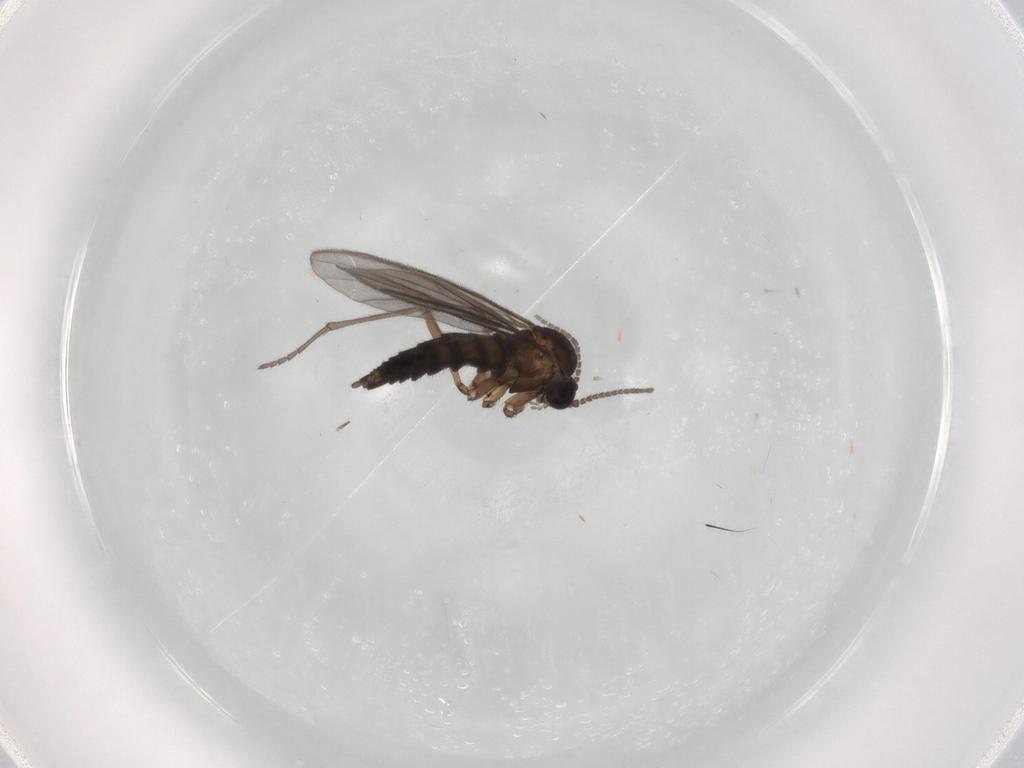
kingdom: Animalia
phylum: Arthropoda
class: Insecta
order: Diptera
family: Sciaridae
